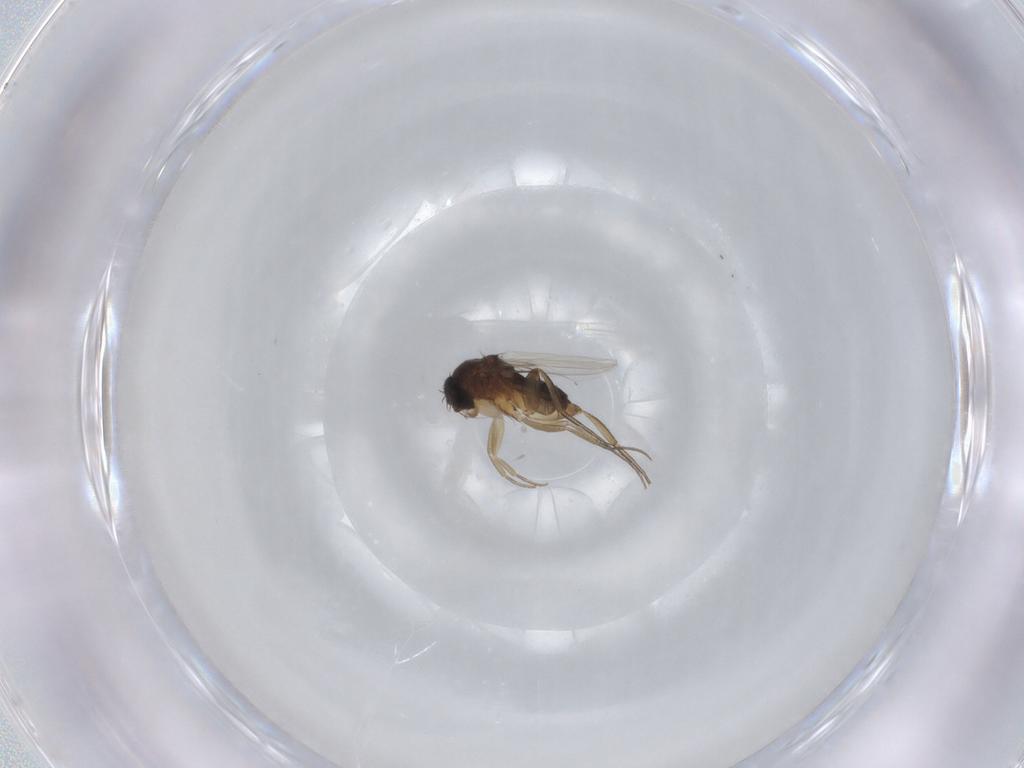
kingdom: Animalia
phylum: Arthropoda
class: Insecta
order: Diptera
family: Phoridae
